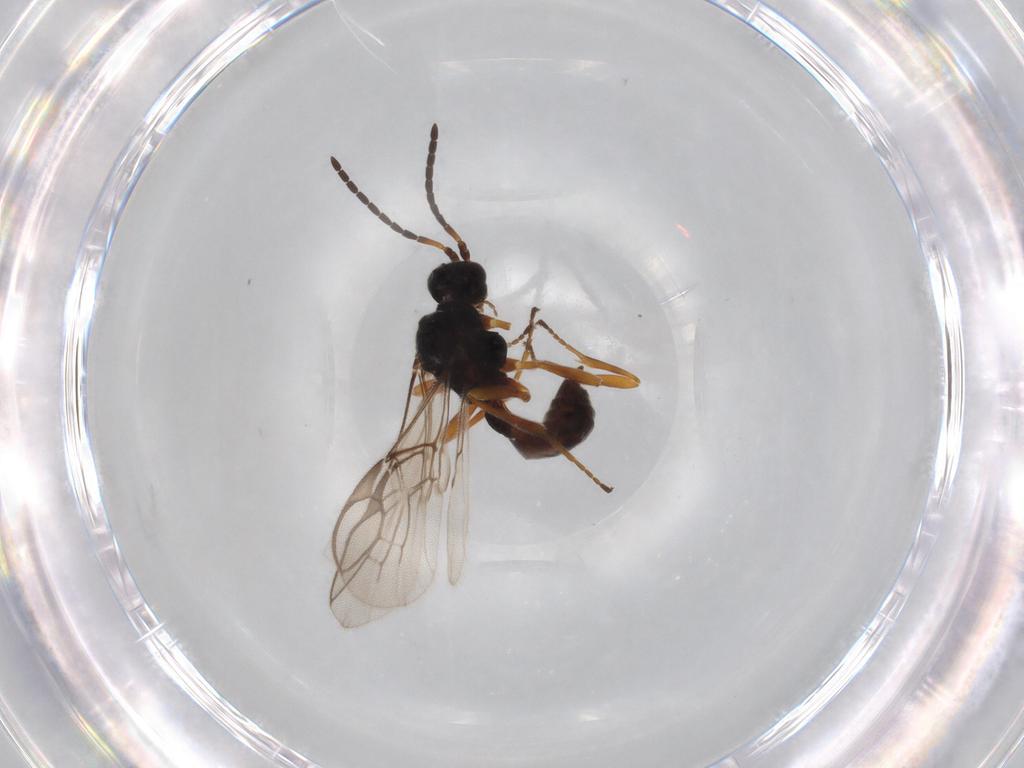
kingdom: Animalia
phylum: Arthropoda
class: Insecta
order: Hymenoptera
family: Braconidae
